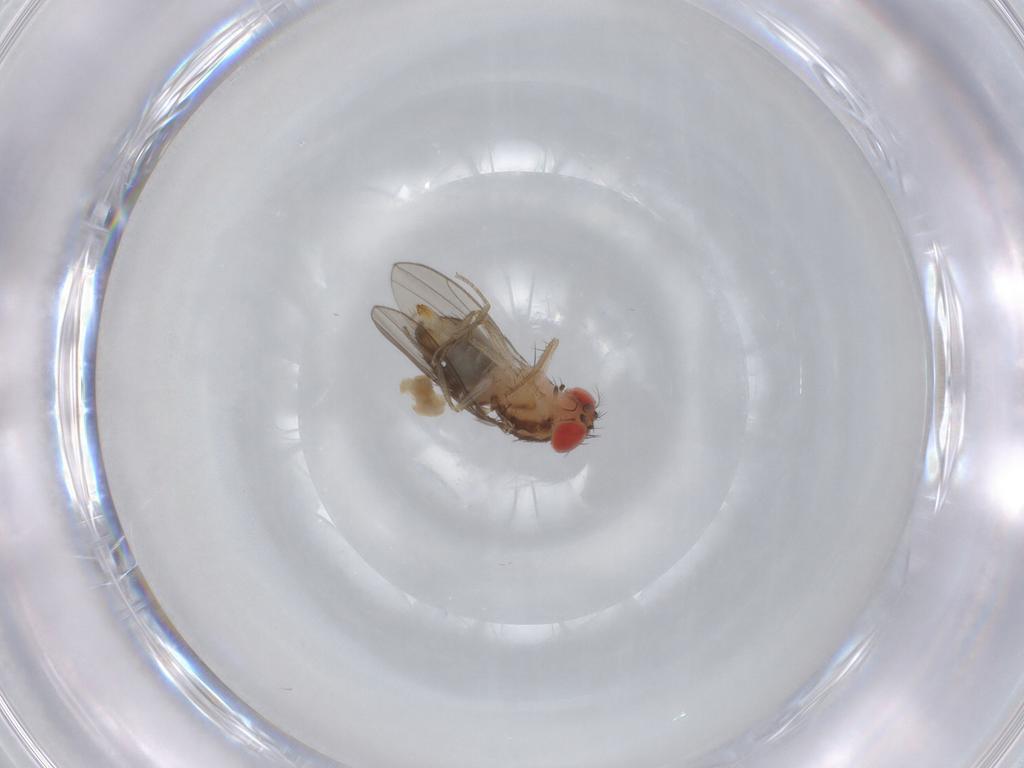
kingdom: Animalia
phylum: Arthropoda
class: Insecta
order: Diptera
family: Drosophilidae
